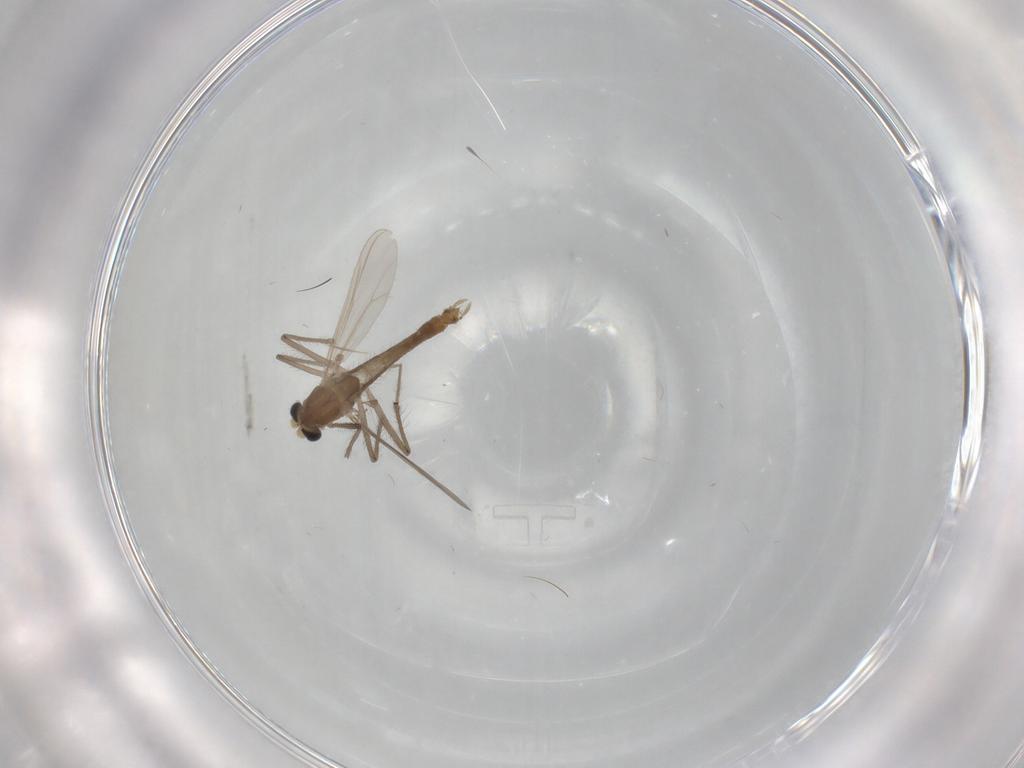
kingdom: Animalia
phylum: Arthropoda
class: Insecta
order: Diptera
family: Chironomidae
